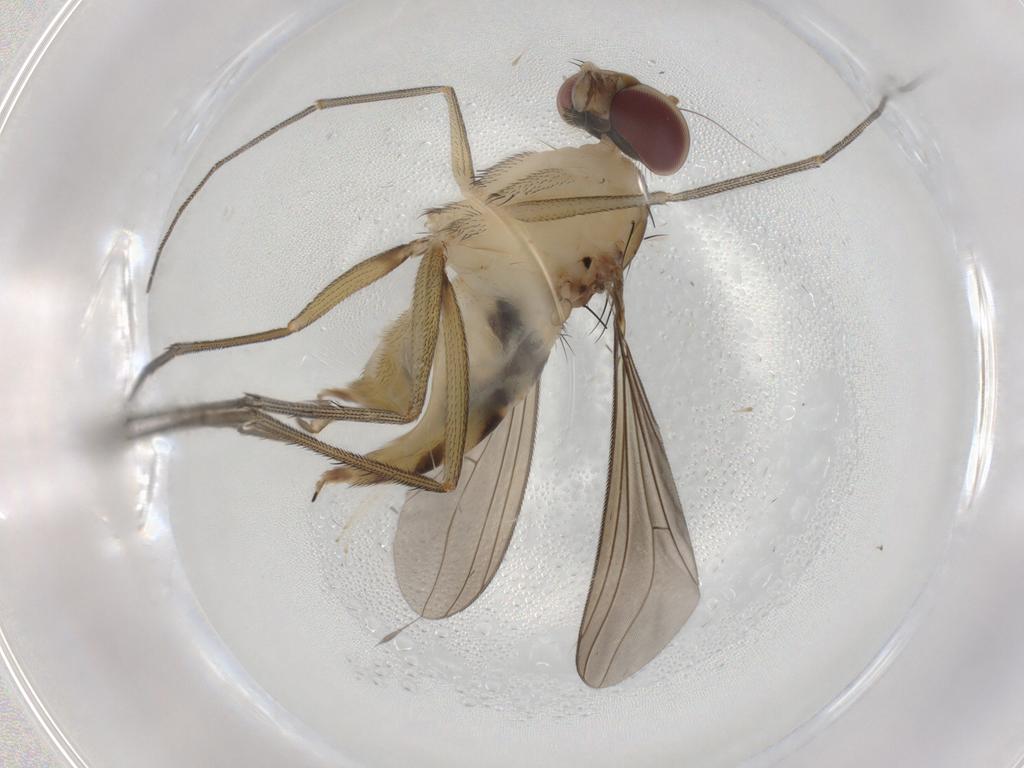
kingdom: Animalia
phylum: Arthropoda
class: Insecta
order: Diptera
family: Dolichopodidae
